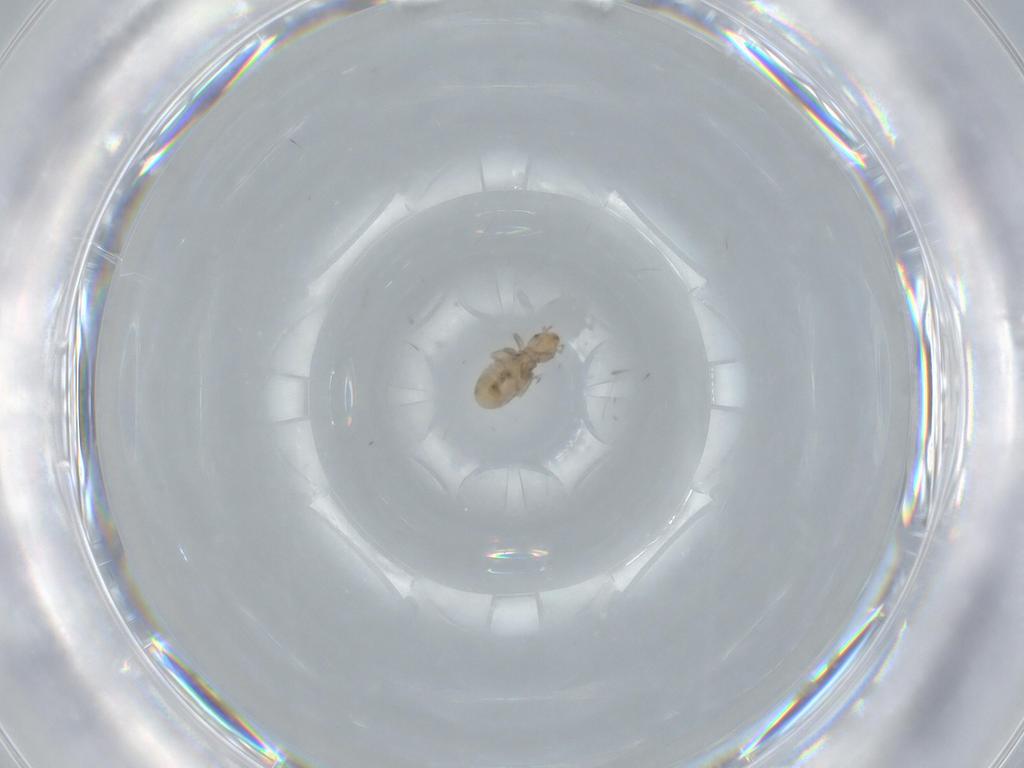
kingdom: Animalia
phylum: Arthropoda
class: Insecta
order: Psocodea
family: Liposcelididae
